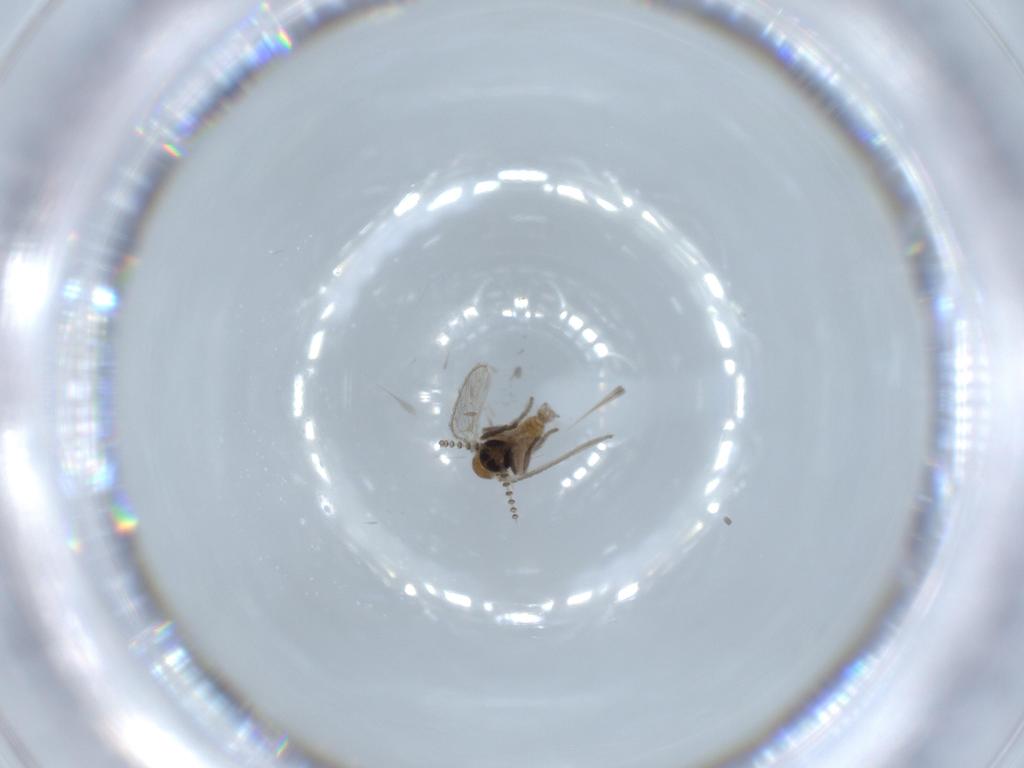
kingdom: Animalia
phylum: Arthropoda
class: Insecta
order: Diptera
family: Psychodidae
